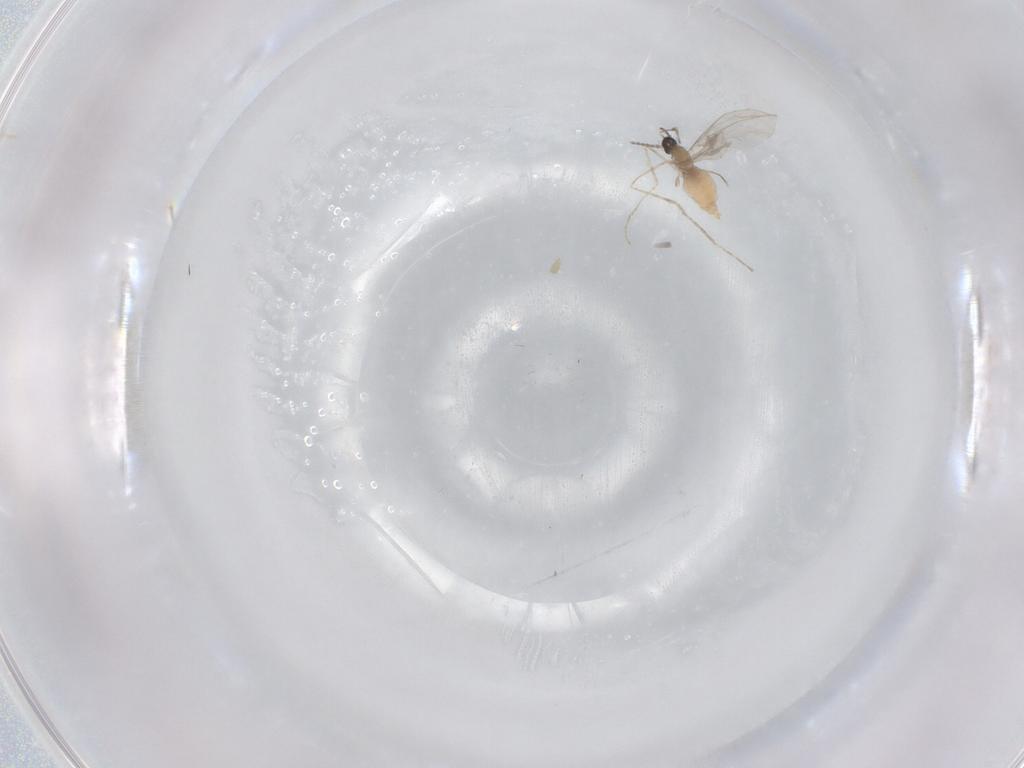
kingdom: Animalia
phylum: Arthropoda
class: Insecta
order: Diptera
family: Cecidomyiidae
